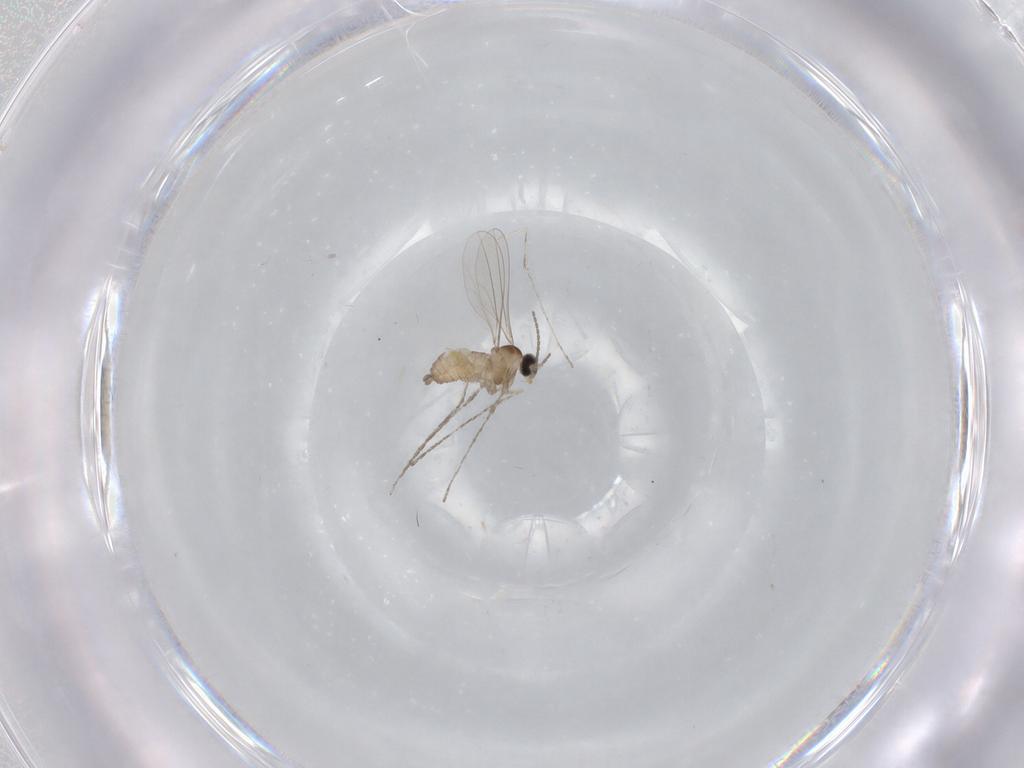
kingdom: Animalia
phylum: Arthropoda
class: Insecta
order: Diptera
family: Cecidomyiidae
